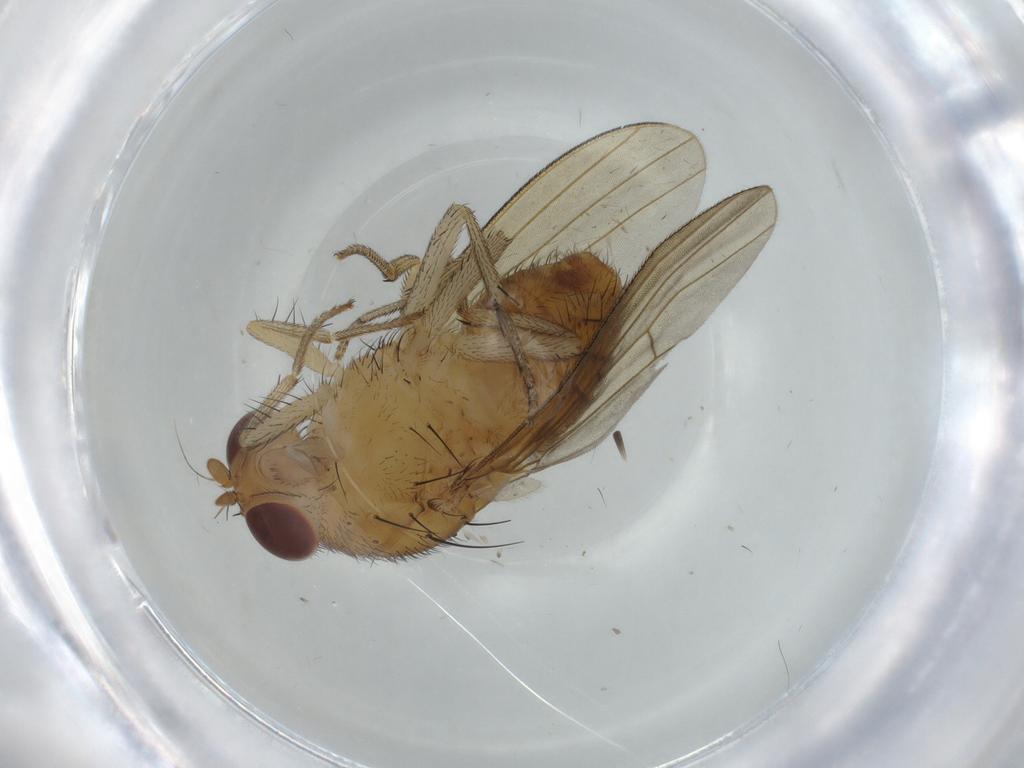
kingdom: Animalia
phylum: Arthropoda
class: Insecta
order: Diptera
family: Lauxaniidae
